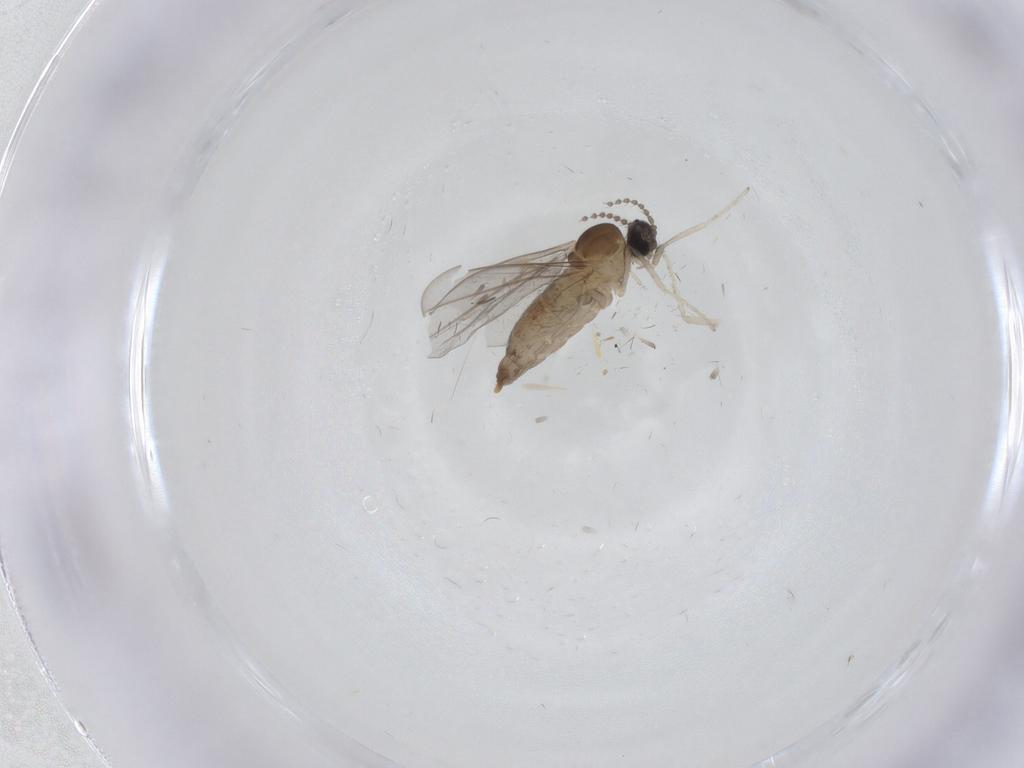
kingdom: Animalia
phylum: Arthropoda
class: Insecta
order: Diptera
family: Cecidomyiidae
